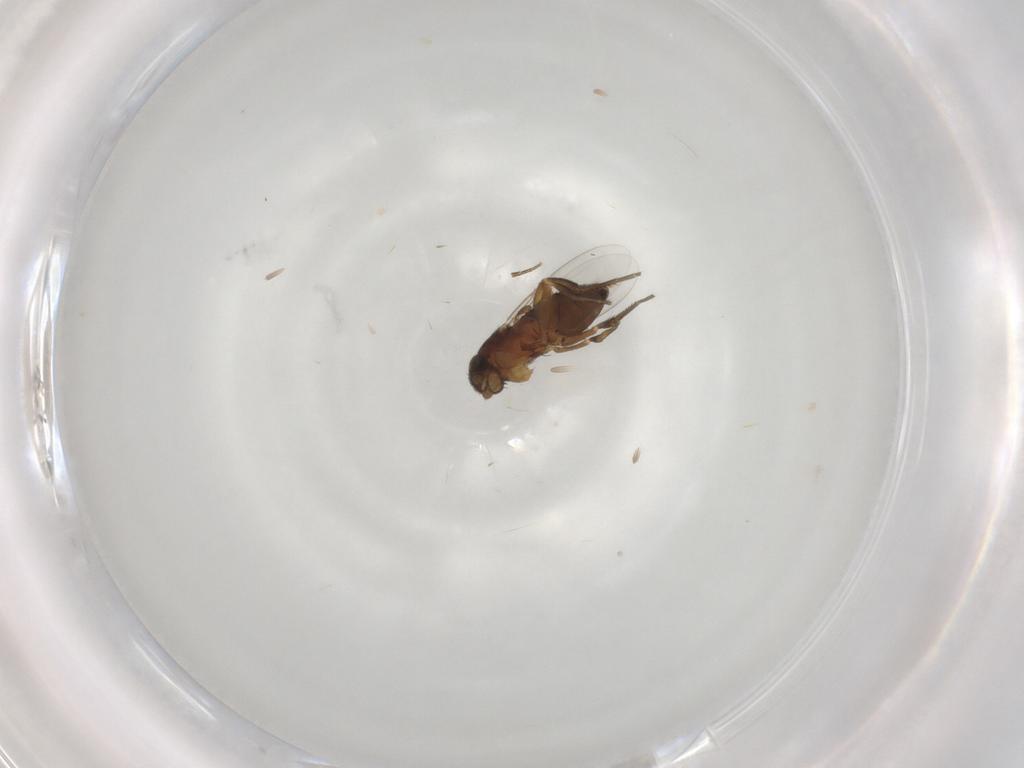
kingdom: Animalia
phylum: Arthropoda
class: Insecta
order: Diptera
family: Phoridae
